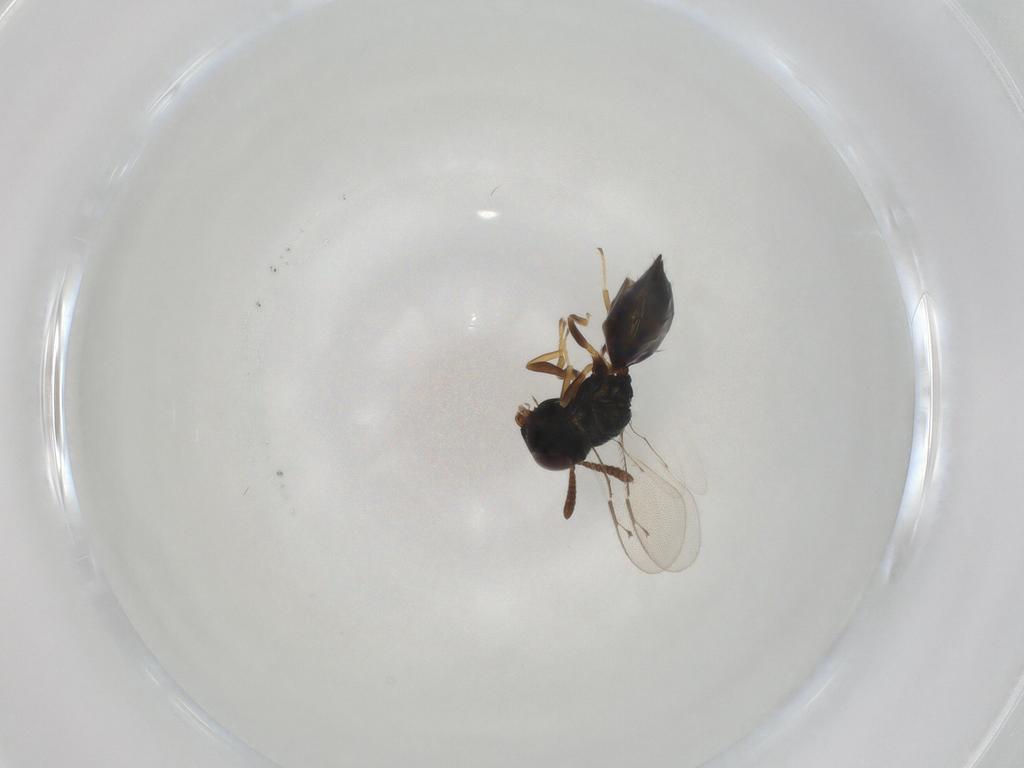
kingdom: Animalia
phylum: Arthropoda
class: Insecta
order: Hymenoptera
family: Pteromalidae
